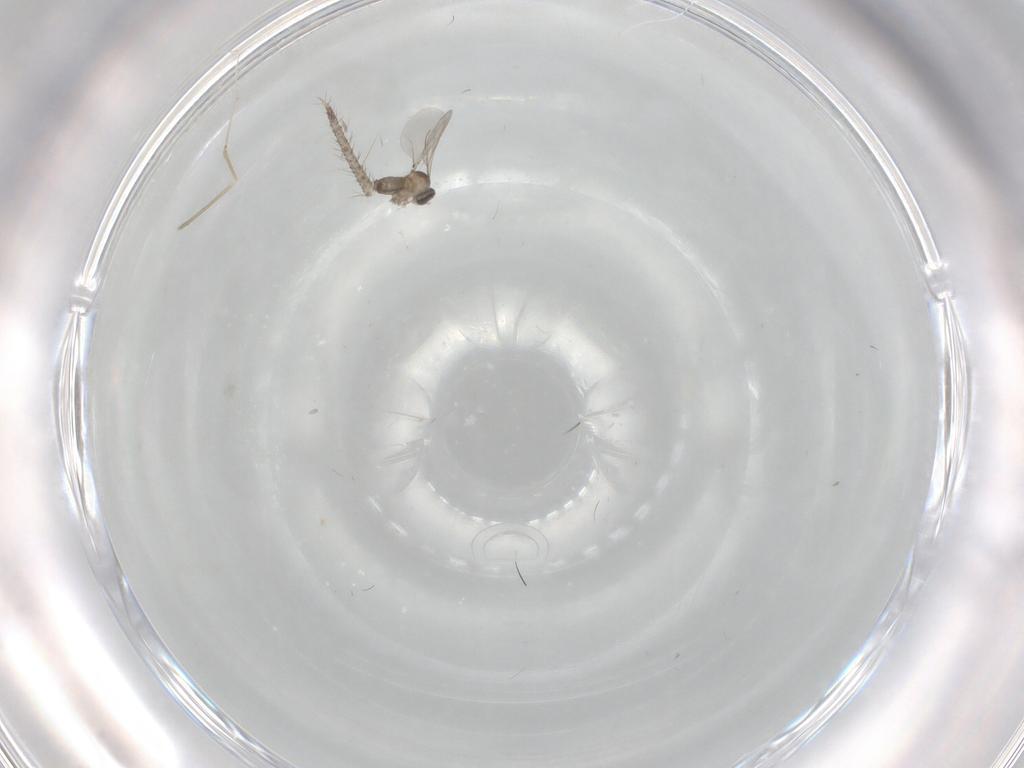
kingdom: Animalia
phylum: Arthropoda
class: Insecta
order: Diptera
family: Cecidomyiidae
